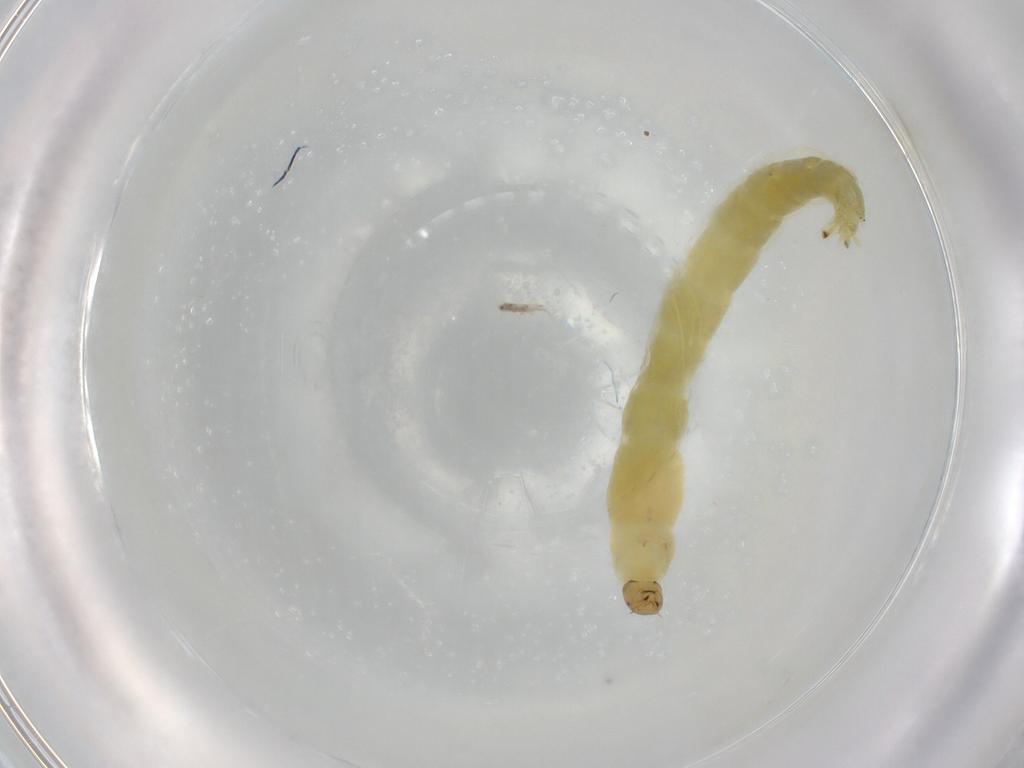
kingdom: Animalia
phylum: Arthropoda
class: Insecta
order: Diptera
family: Chironomidae
